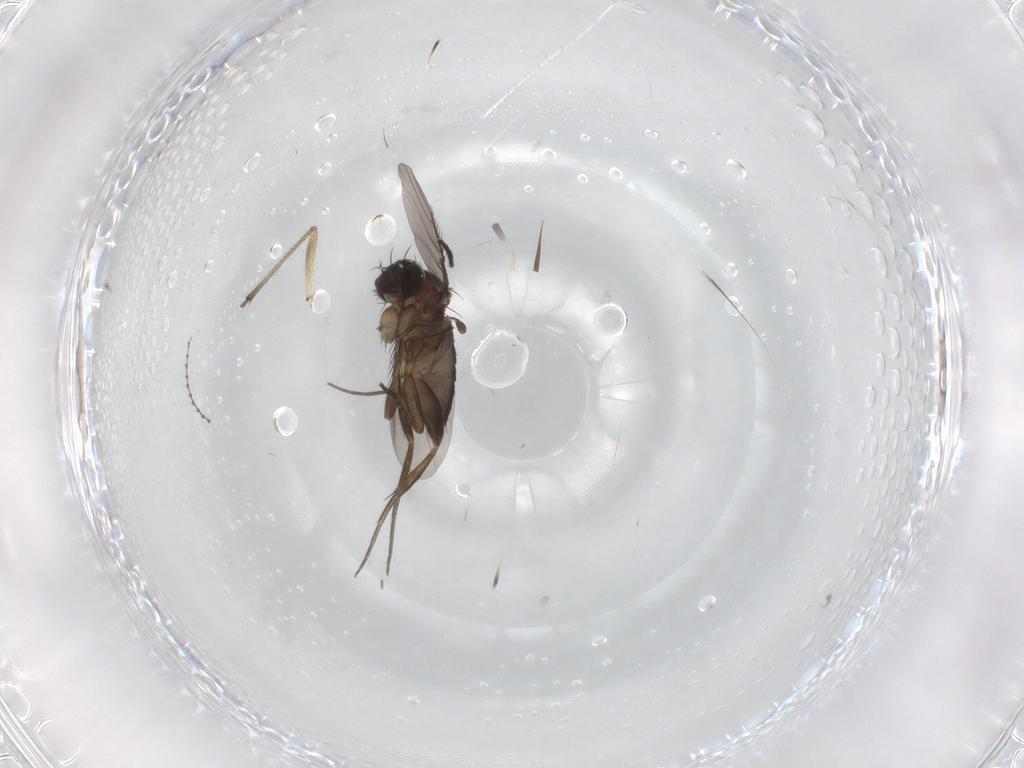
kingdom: Animalia
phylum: Arthropoda
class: Insecta
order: Diptera
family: Phoridae
